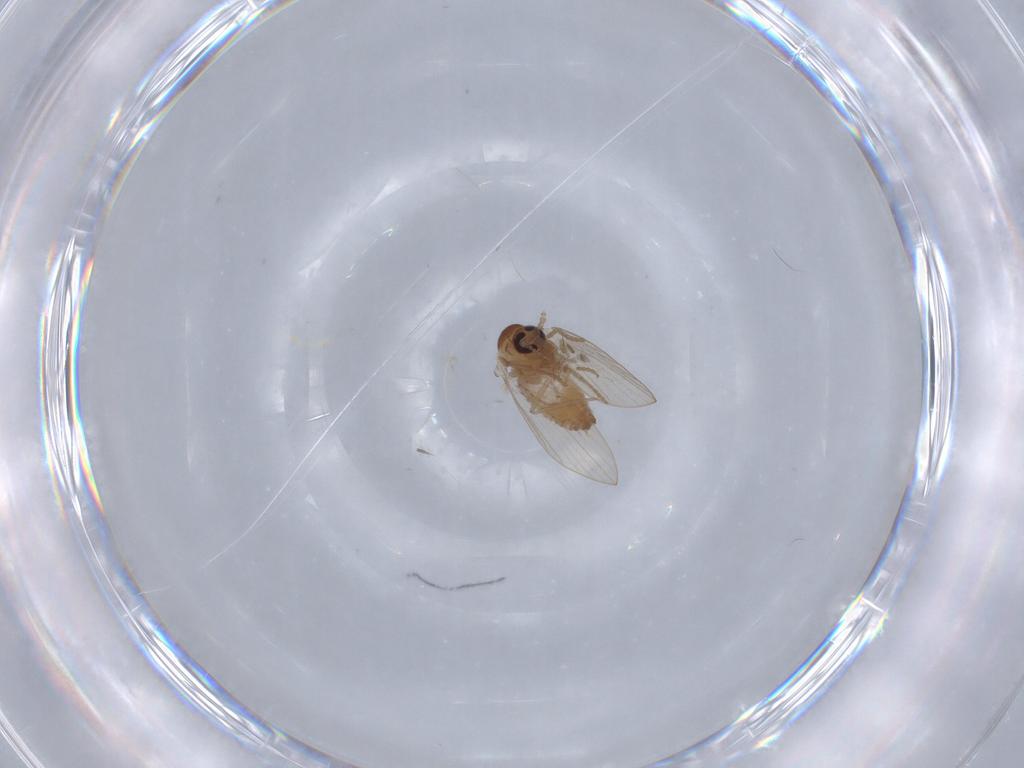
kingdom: Animalia
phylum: Arthropoda
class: Insecta
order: Diptera
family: Psychodidae
